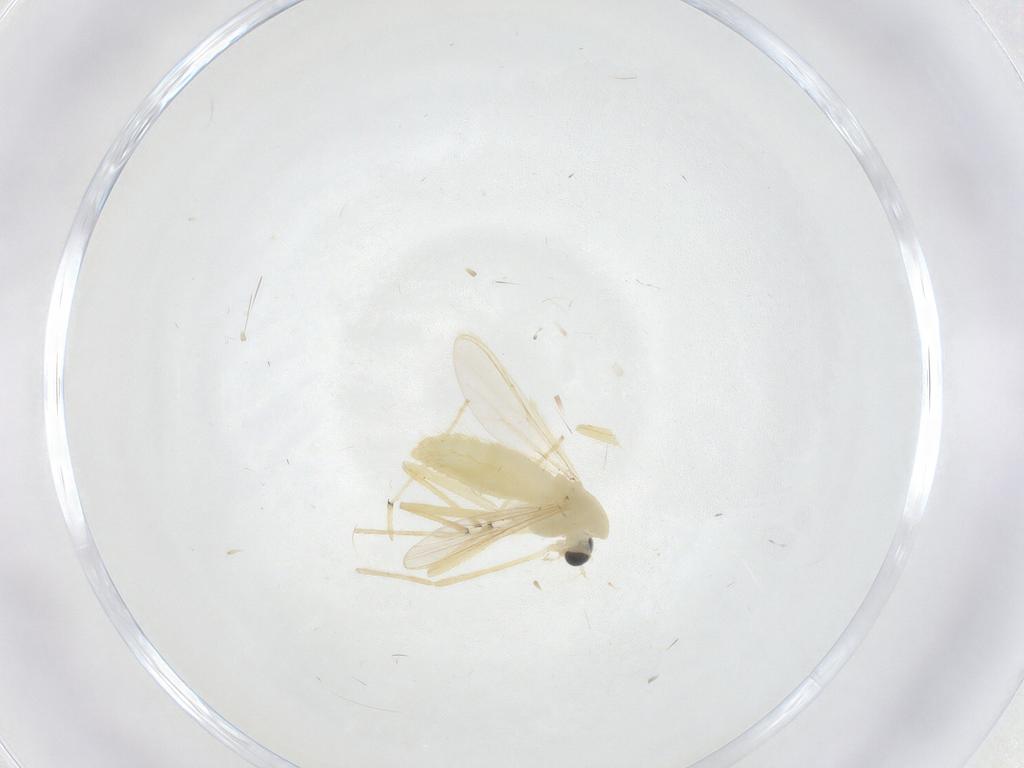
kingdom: Animalia
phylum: Arthropoda
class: Insecta
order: Diptera
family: Chironomidae
